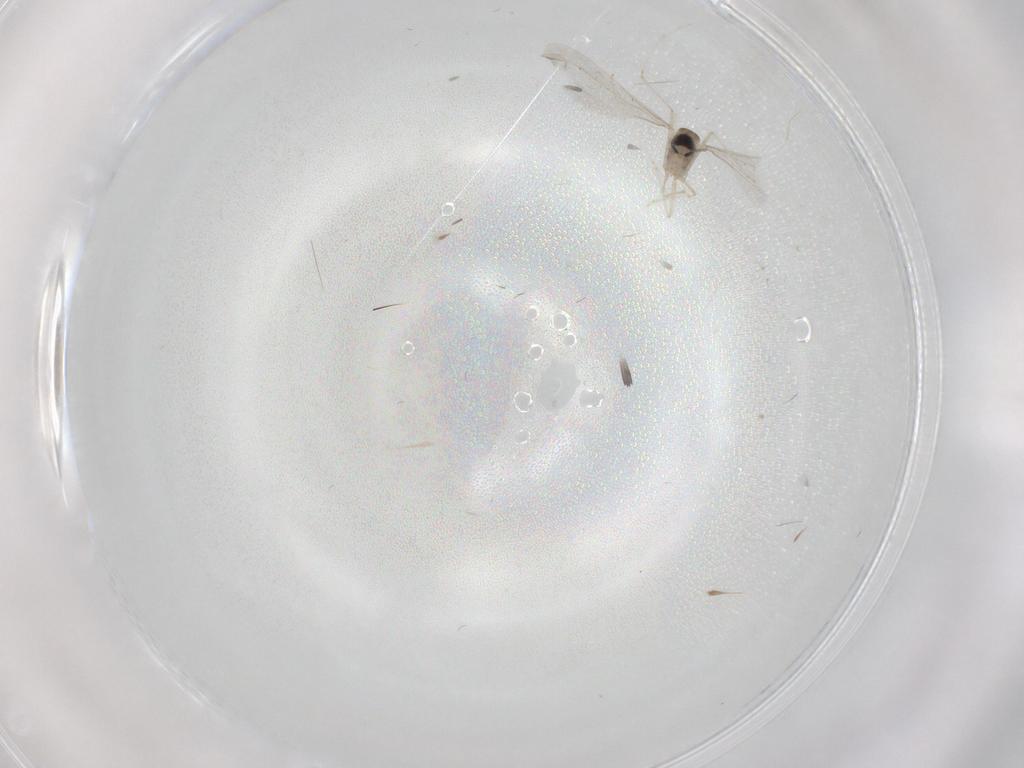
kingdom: Animalia
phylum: Arthropoda
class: Insecta
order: Diptera
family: Cecidomyiidae
